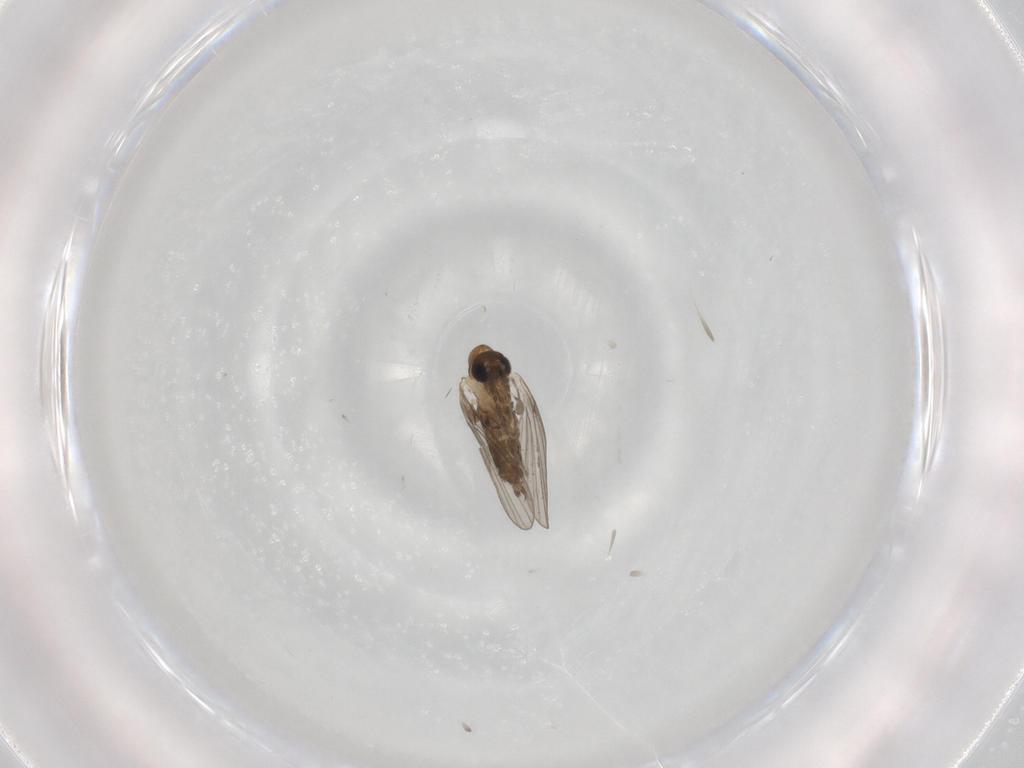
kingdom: Animalia
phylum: Arthropoda
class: Insecta
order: Diptera
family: Psychodidae
